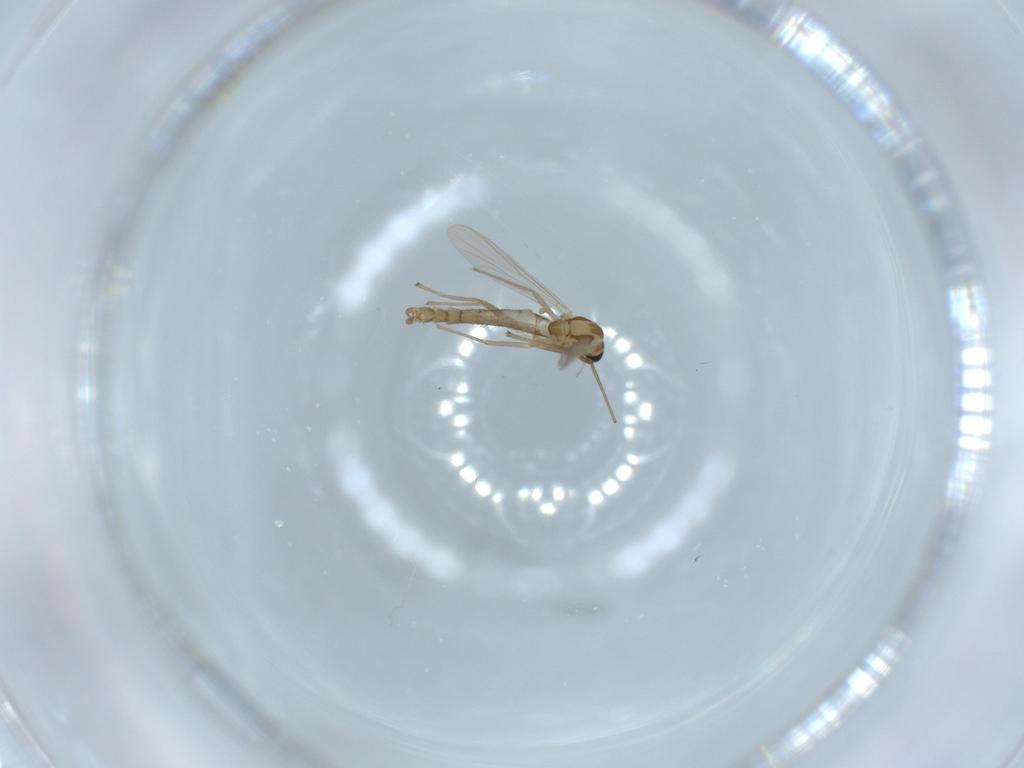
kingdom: Animalia
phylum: Arthropoda
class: Insecta
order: Diptera
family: Chironomidae
